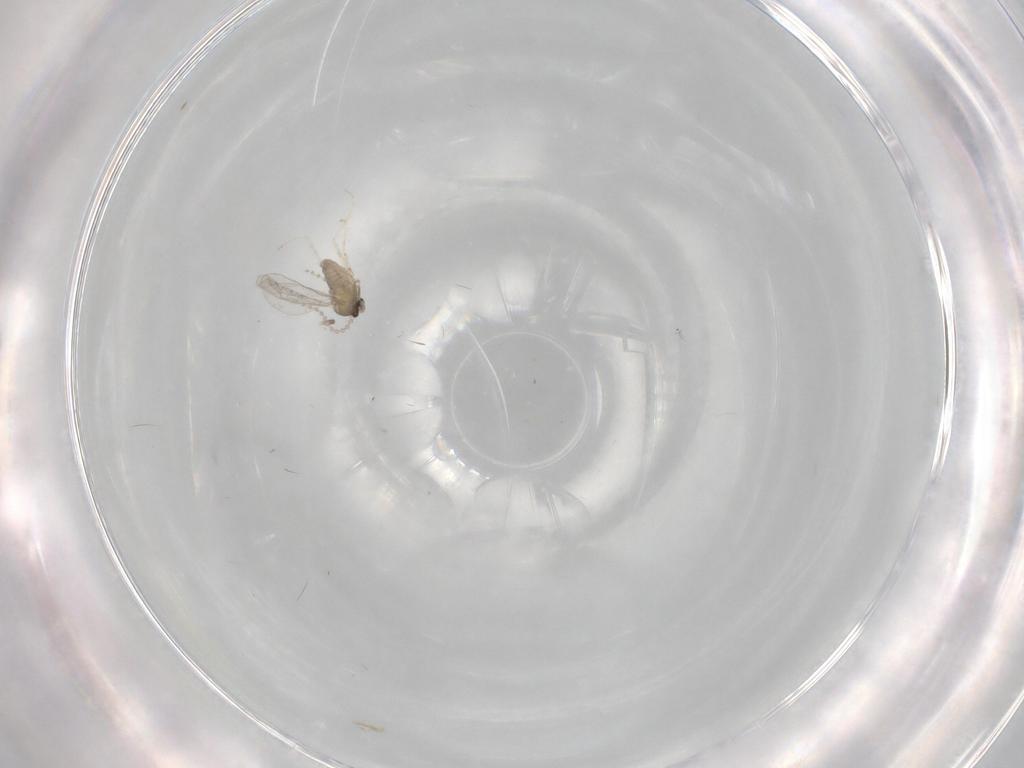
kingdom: Animalia
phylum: Arthropoda
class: Insecta
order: Diptera
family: Cecidomyiidae
